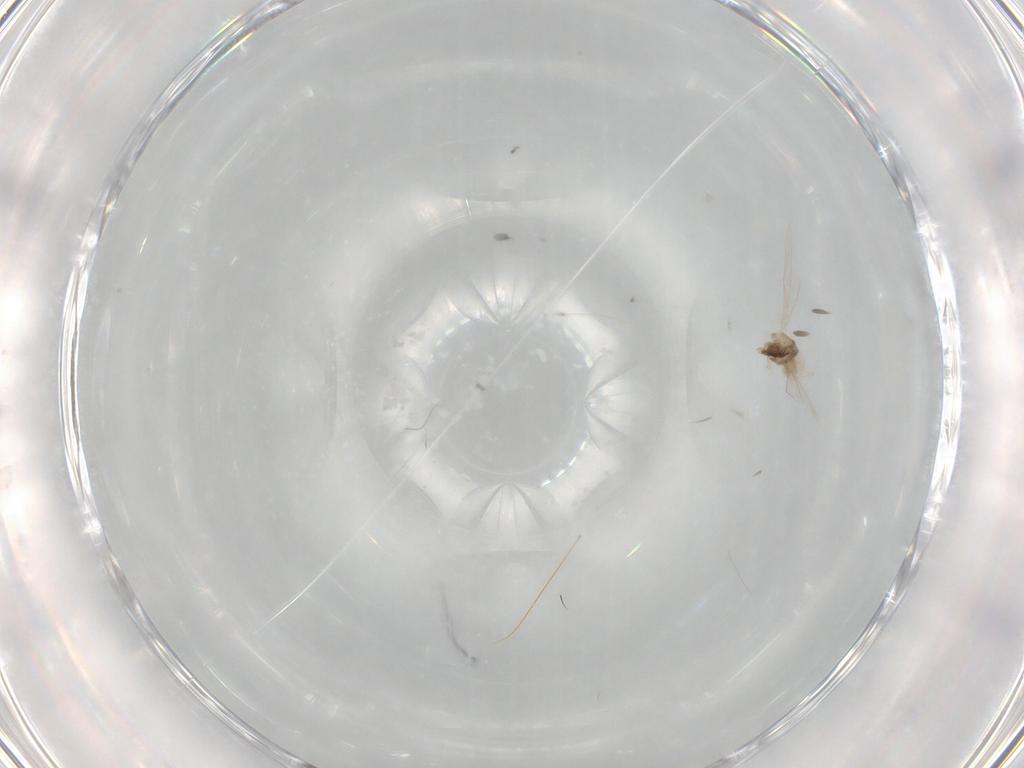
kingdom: Animalia
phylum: Arthropoda
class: Insecta
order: Diptera
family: Cecidomyiidae
